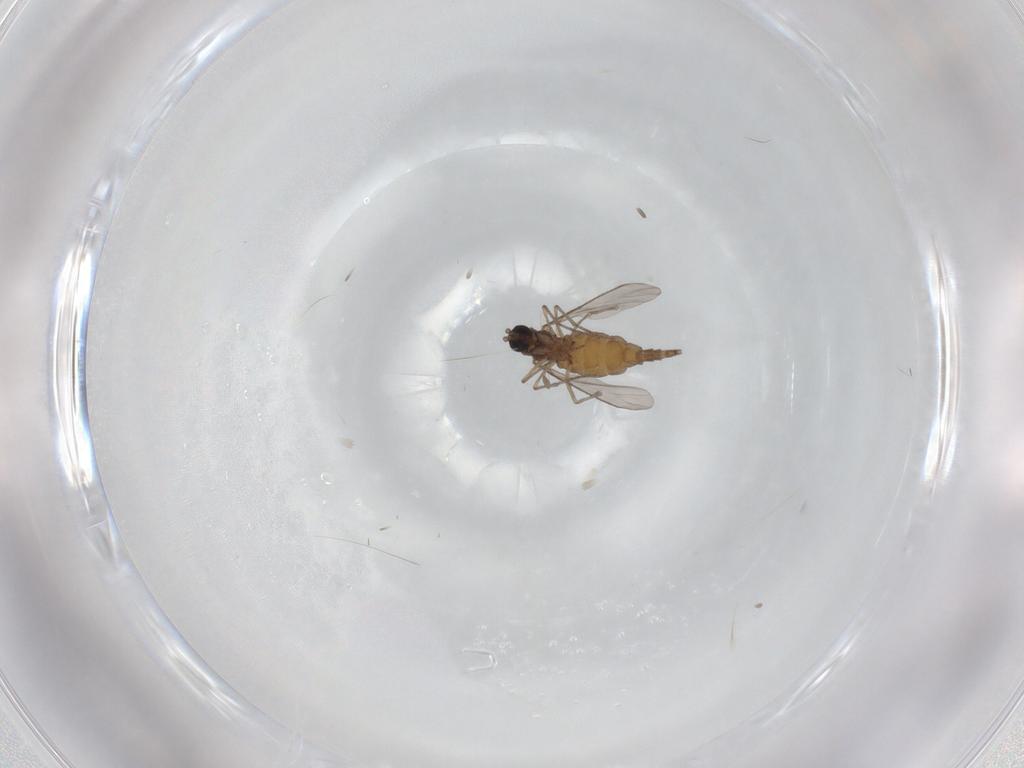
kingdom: Animalia
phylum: Arthropoda
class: Insecta
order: Diptera
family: Sciaridae
